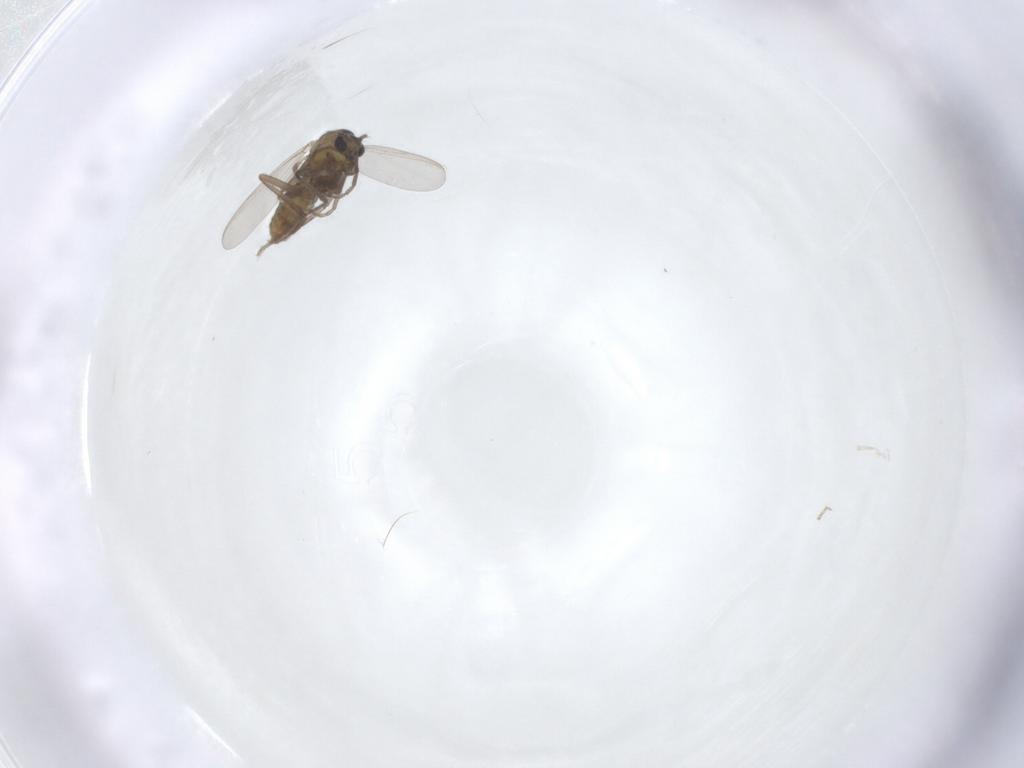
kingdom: Animalia
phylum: Arthropoda
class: Insecta
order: Diptera
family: Chironomidae
